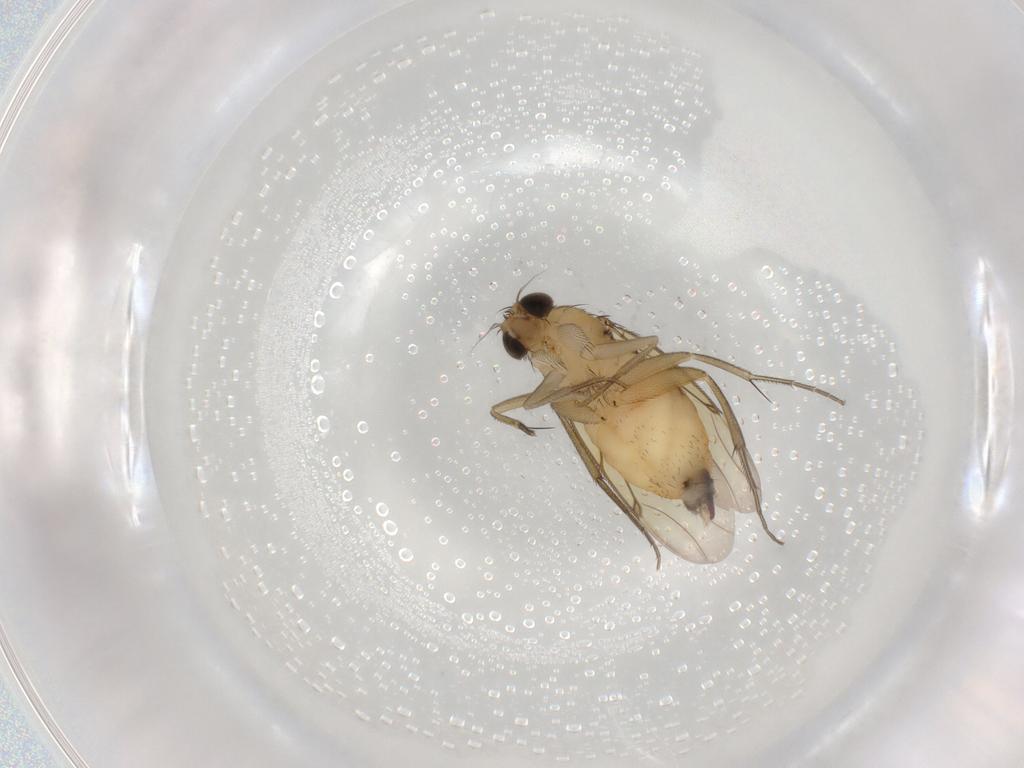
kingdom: Animalia
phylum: Arthropoda
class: Insecta
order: Diptera
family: Phoridae
